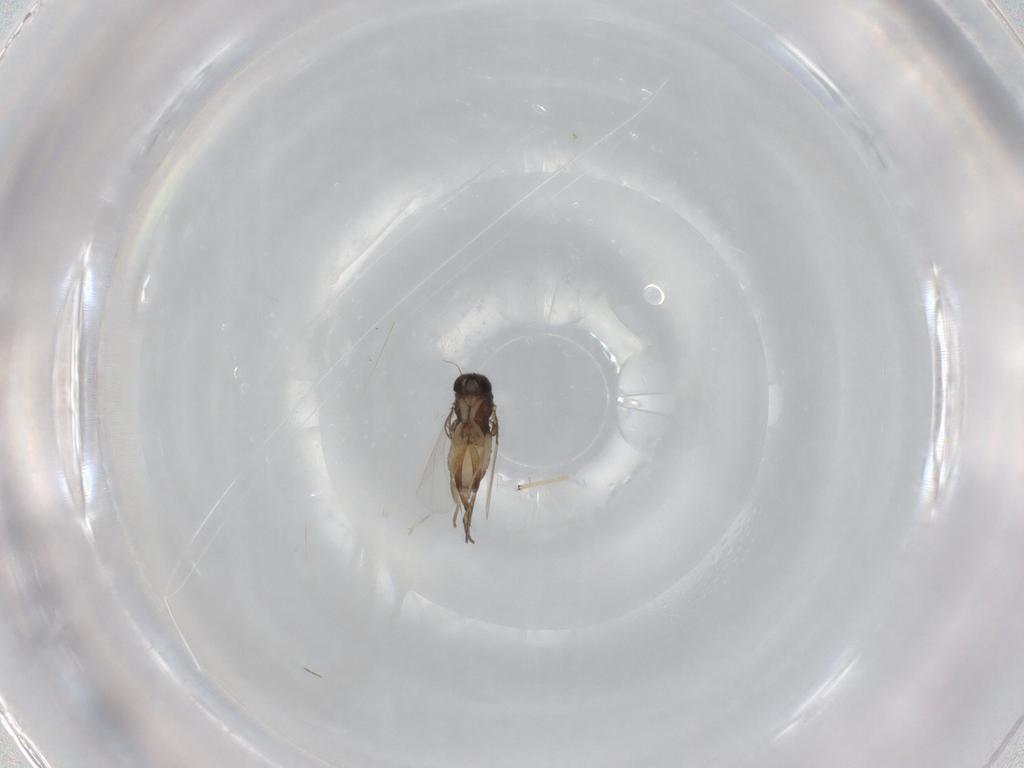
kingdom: Animalia
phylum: Arthropoda
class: Insecta
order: Diptera
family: Phoridae
